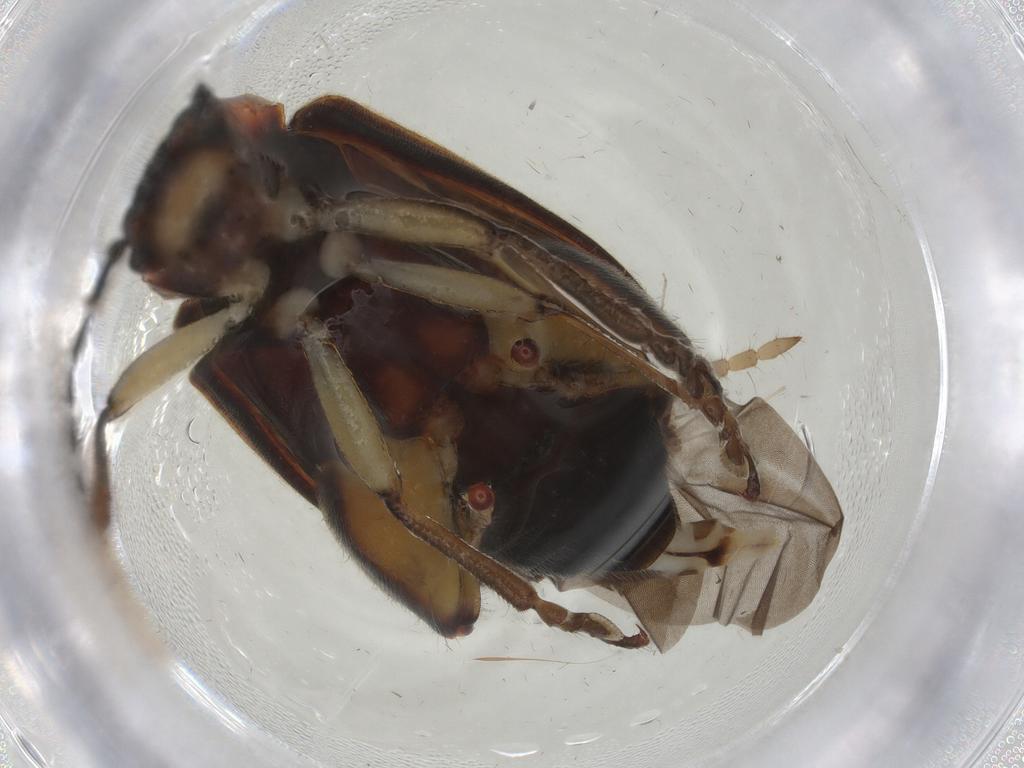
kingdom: Animalia
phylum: Arthropoda
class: Insecta
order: Coleoptera
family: Chrysomelidae
